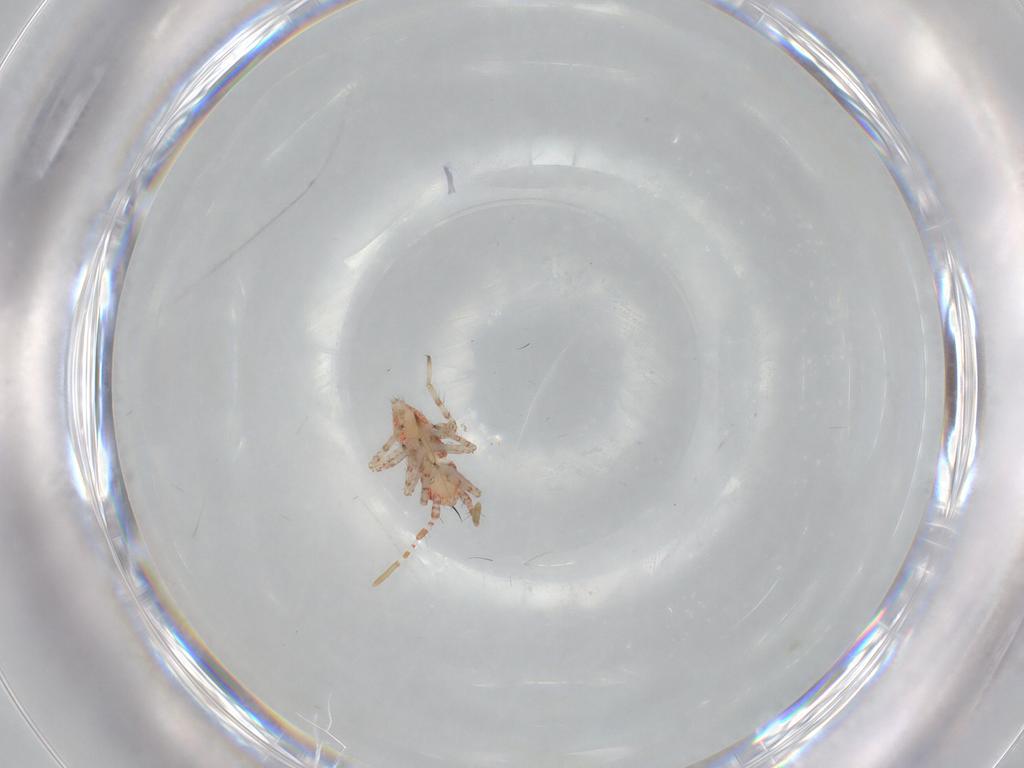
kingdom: Animalia
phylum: Arthropoda
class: Insecta
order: Hemiptera
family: Miridae
